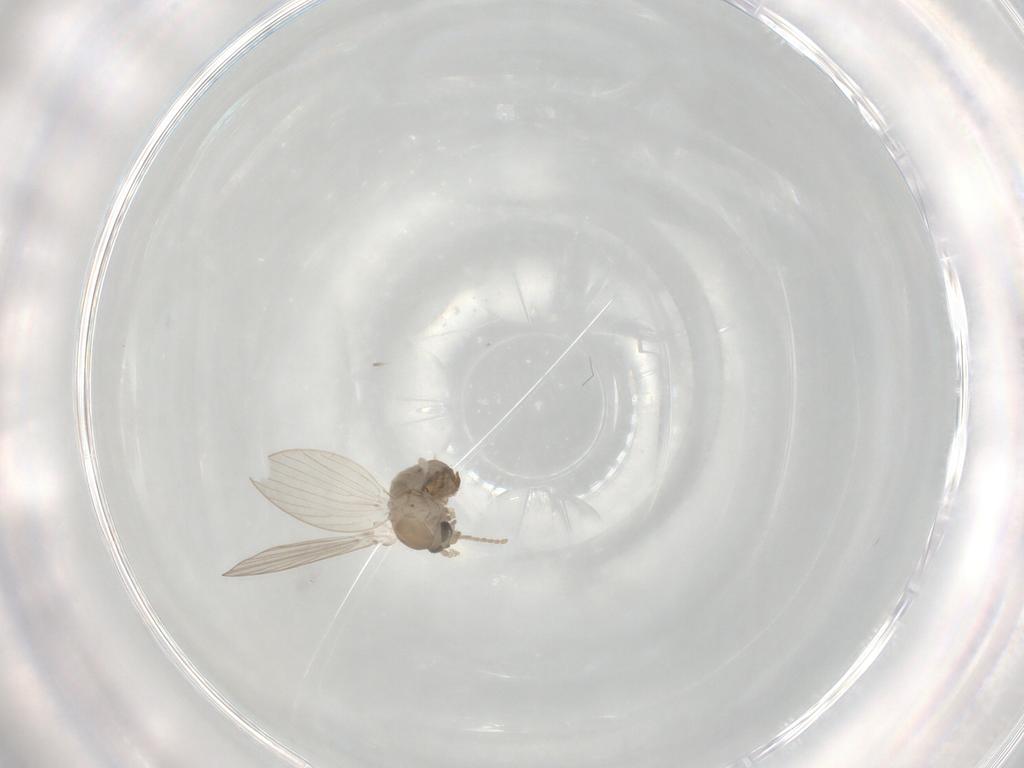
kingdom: Animalia
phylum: Arthropoda
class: Insecta
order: Diptera
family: Psychodidae
